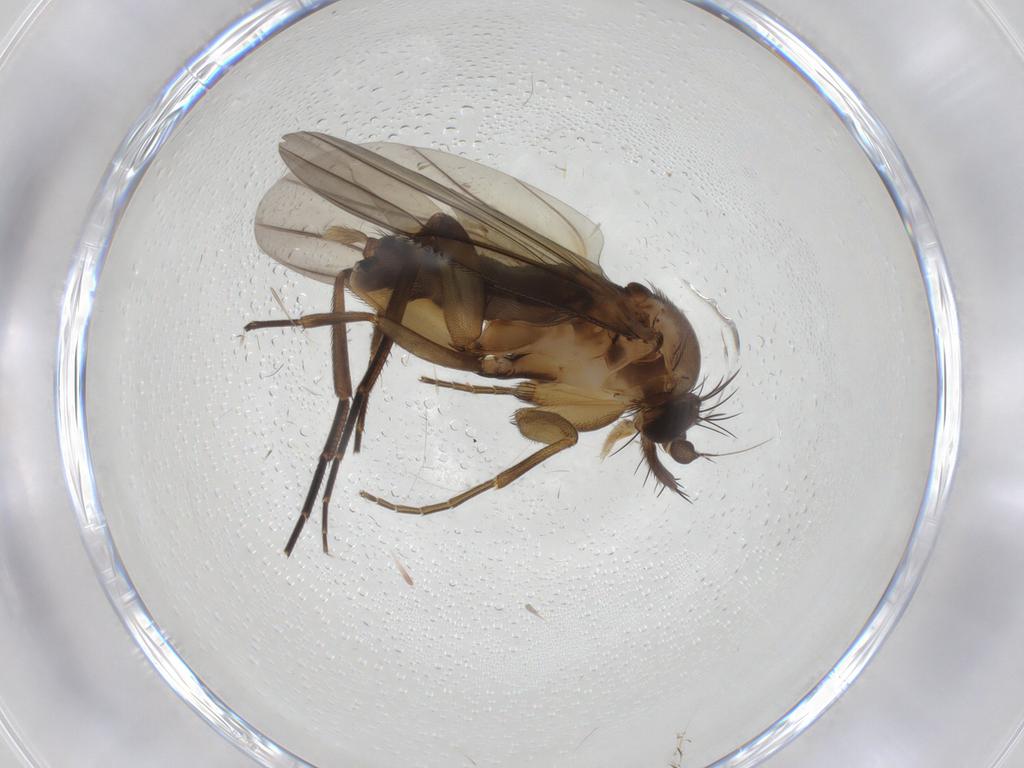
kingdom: Animalia
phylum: Arthropoda
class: Insecta
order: Diptera
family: Phoridae
